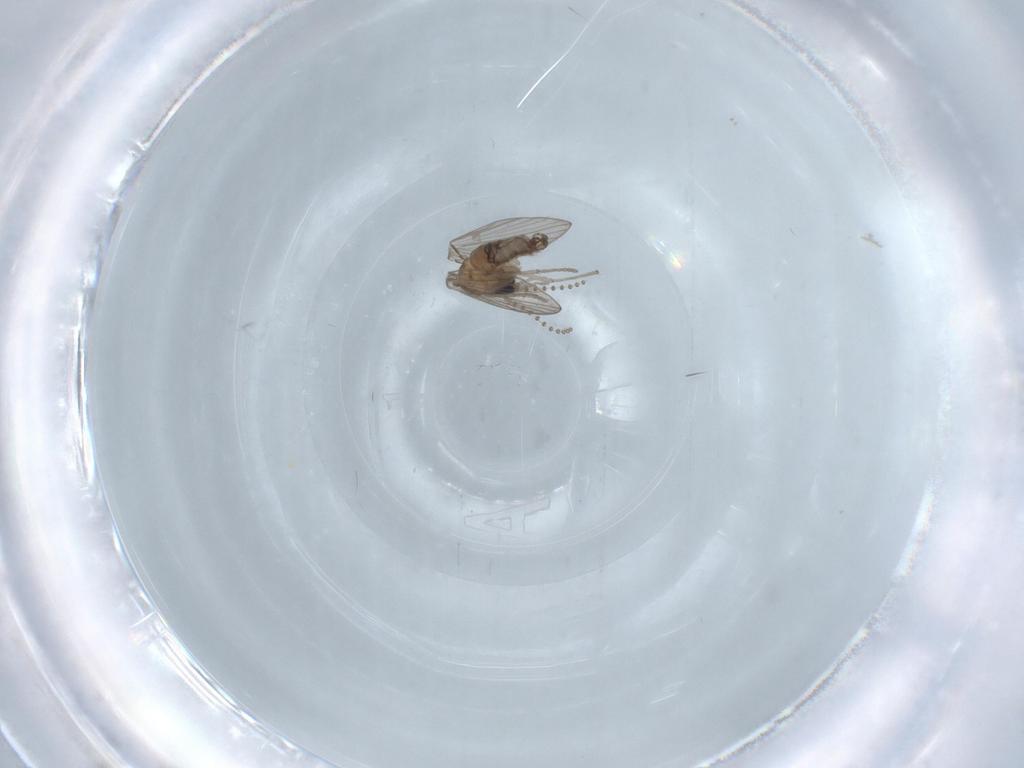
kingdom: Animalia
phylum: Arthropoda
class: Insecta
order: Diptera
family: Psychodidae
